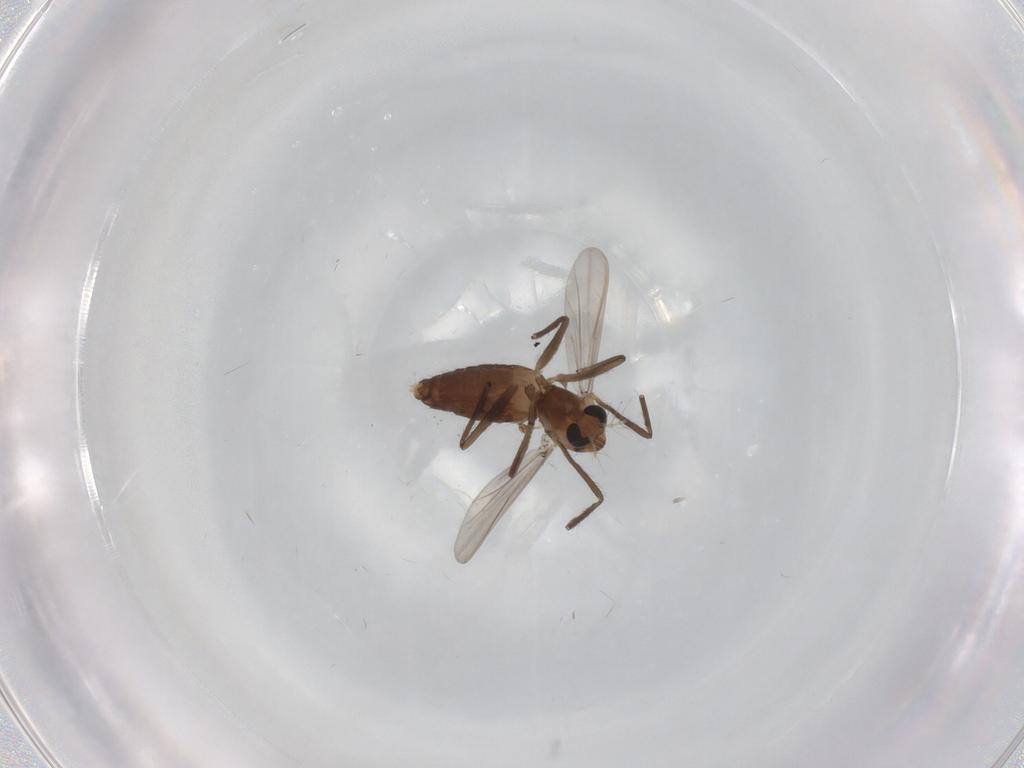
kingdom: Animalia
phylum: Arthropoda
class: Insecta
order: Diptera
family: Chironomidae
